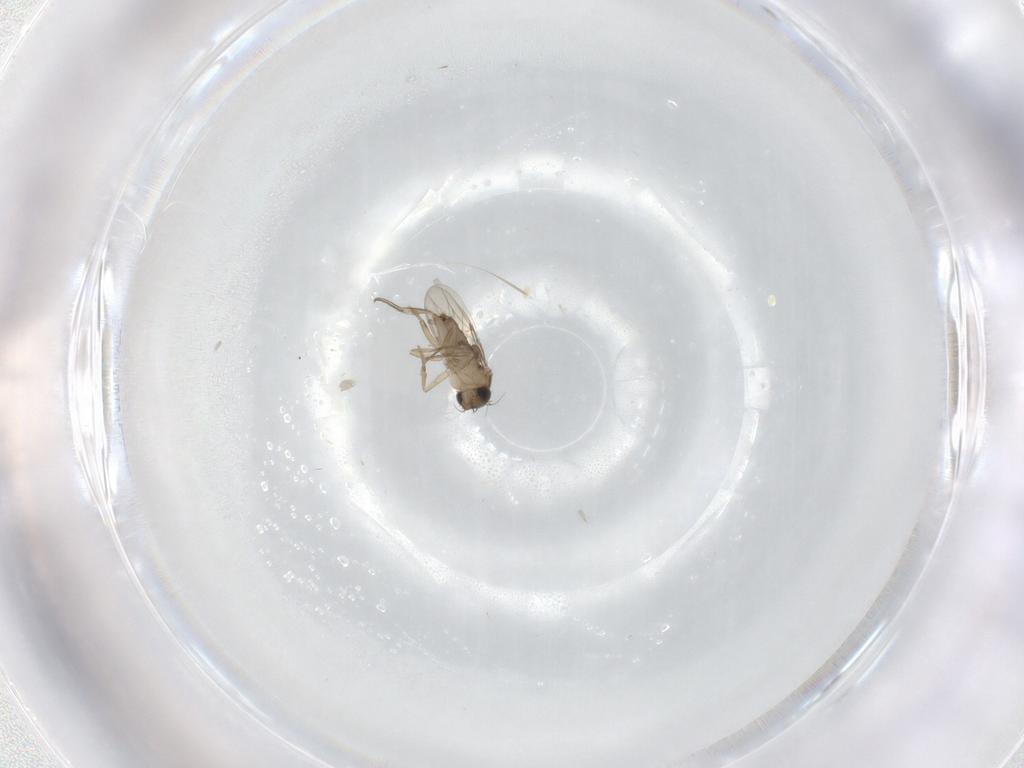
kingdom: Animalia
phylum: Arthropoda
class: Insecta
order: Diptera
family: Phoridae
